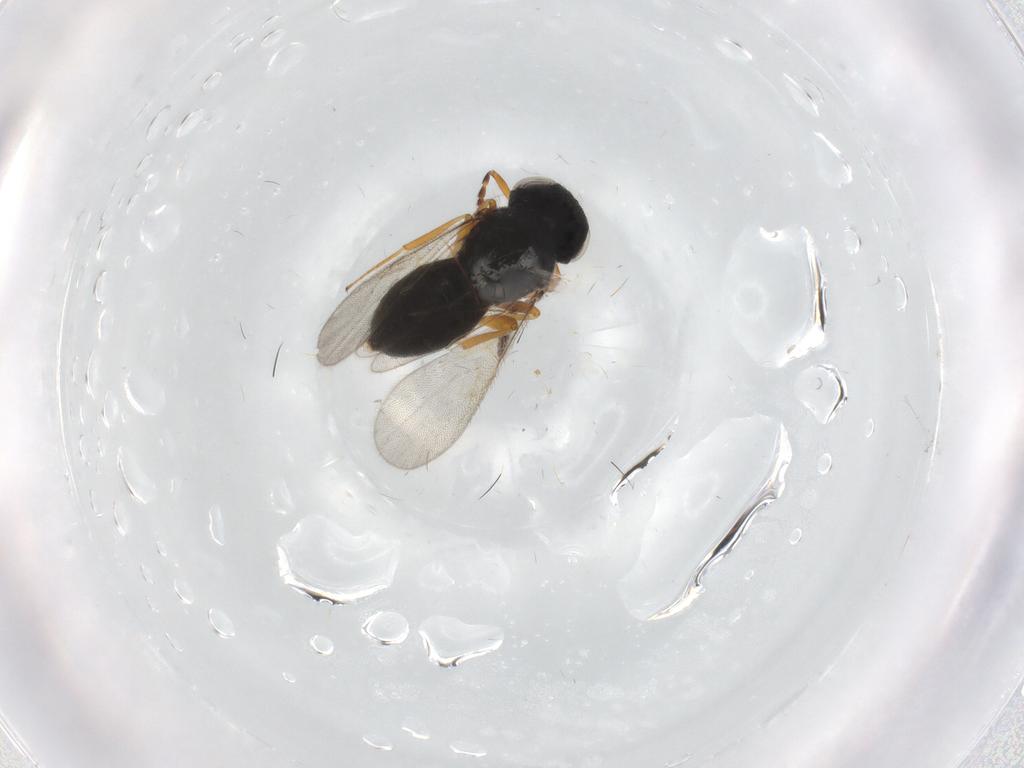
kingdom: Animalia
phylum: Arthropoda
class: Insecta
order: Hymenoptera
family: Scelionidae
